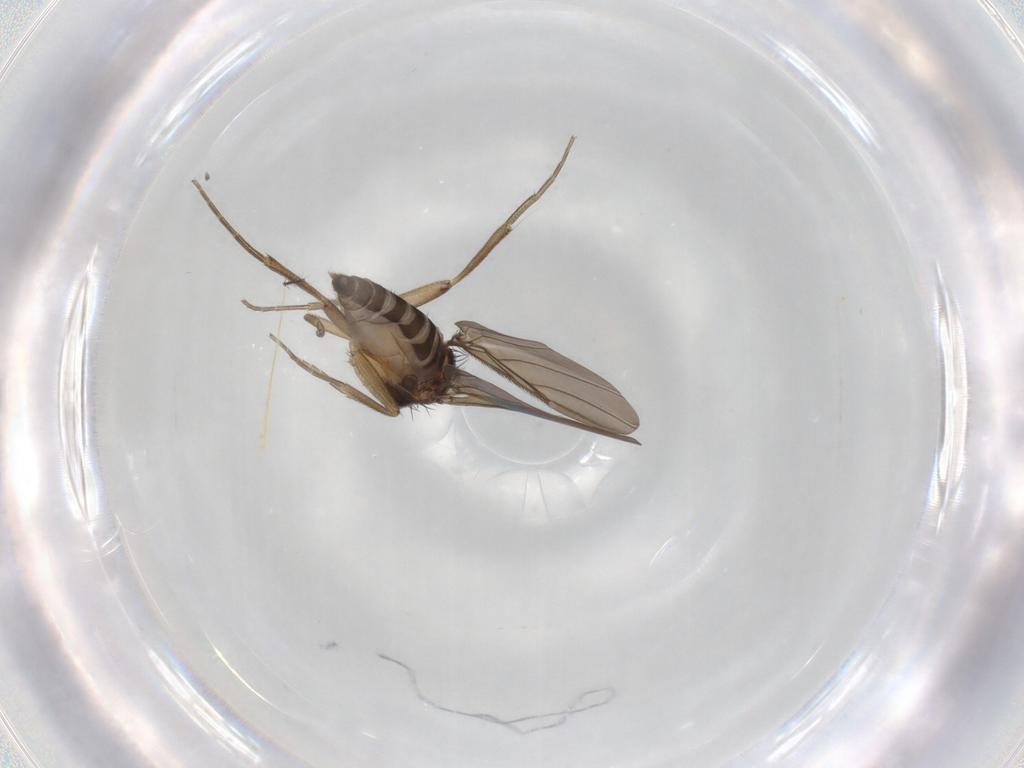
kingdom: Animalia
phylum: Arthropoda
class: Insecta
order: Diptera
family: Phoridae
